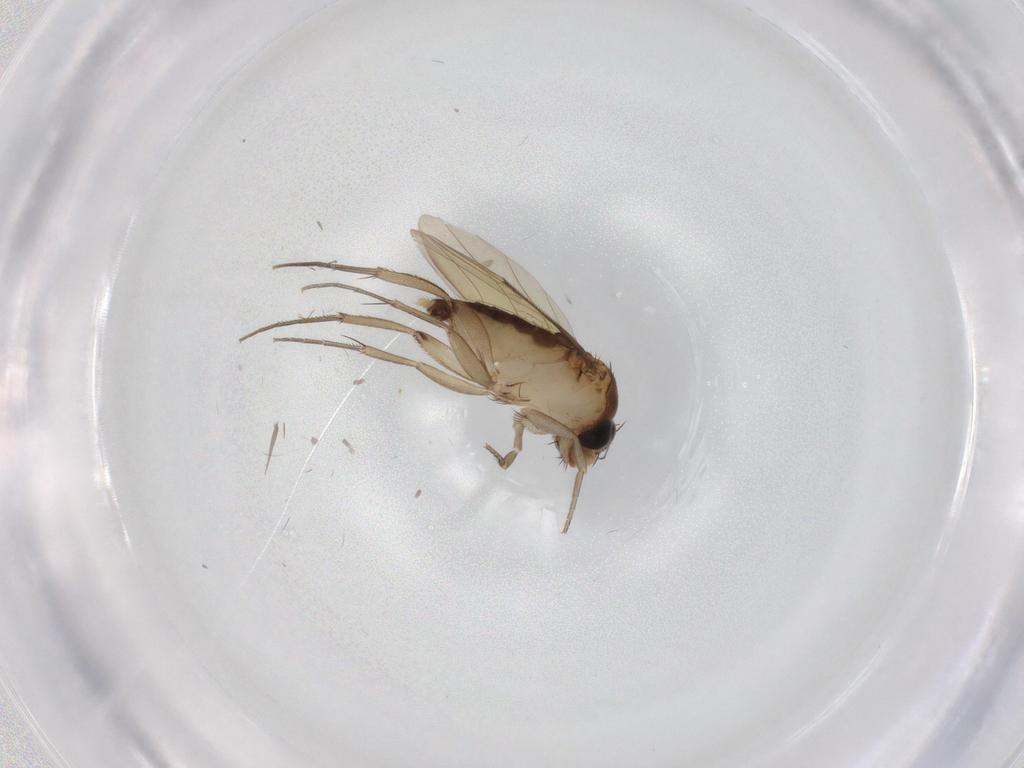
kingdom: Animalia
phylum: Arthropoda
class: Insecta
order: Diptera
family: Phoridae
